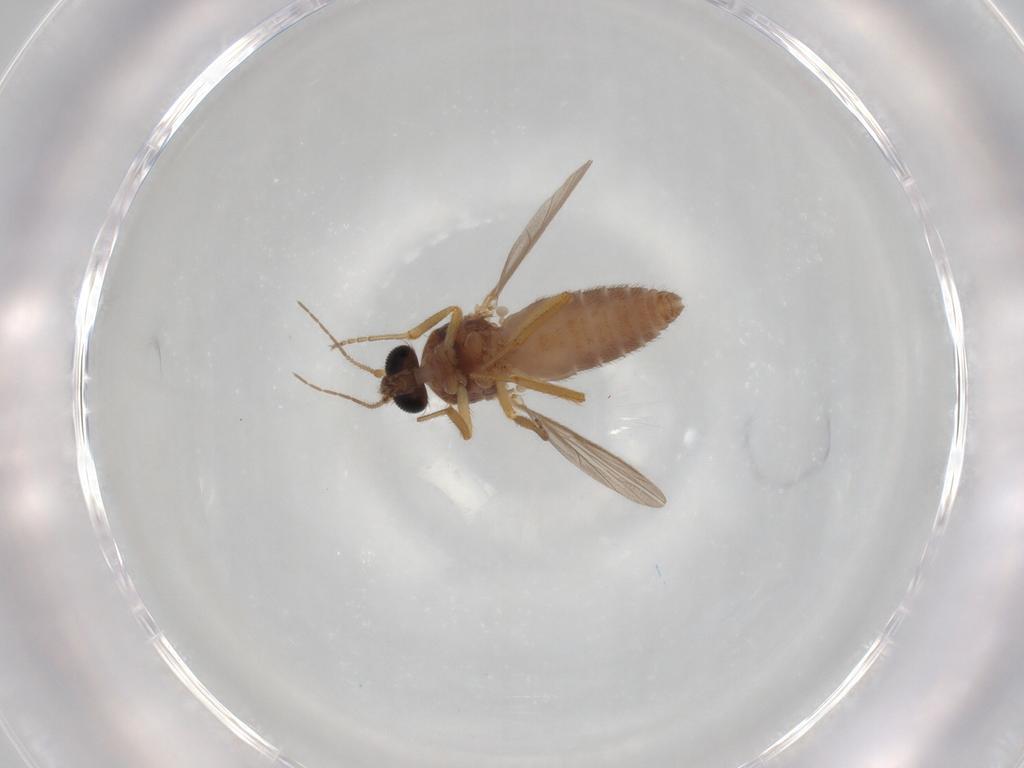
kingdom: Animalia
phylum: Arthropoda
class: Insecta
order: Diptera
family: Ceratopogonidae
